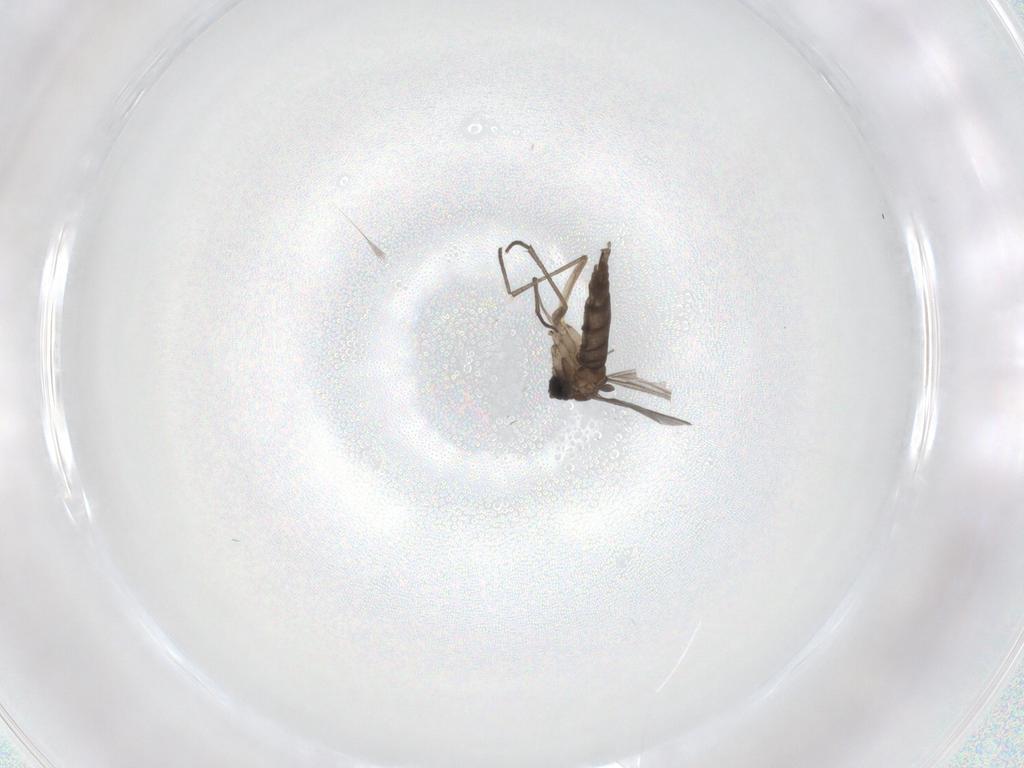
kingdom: Animalia
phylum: Arthropoda
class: Insecta
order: Diptera
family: Sciaridae
